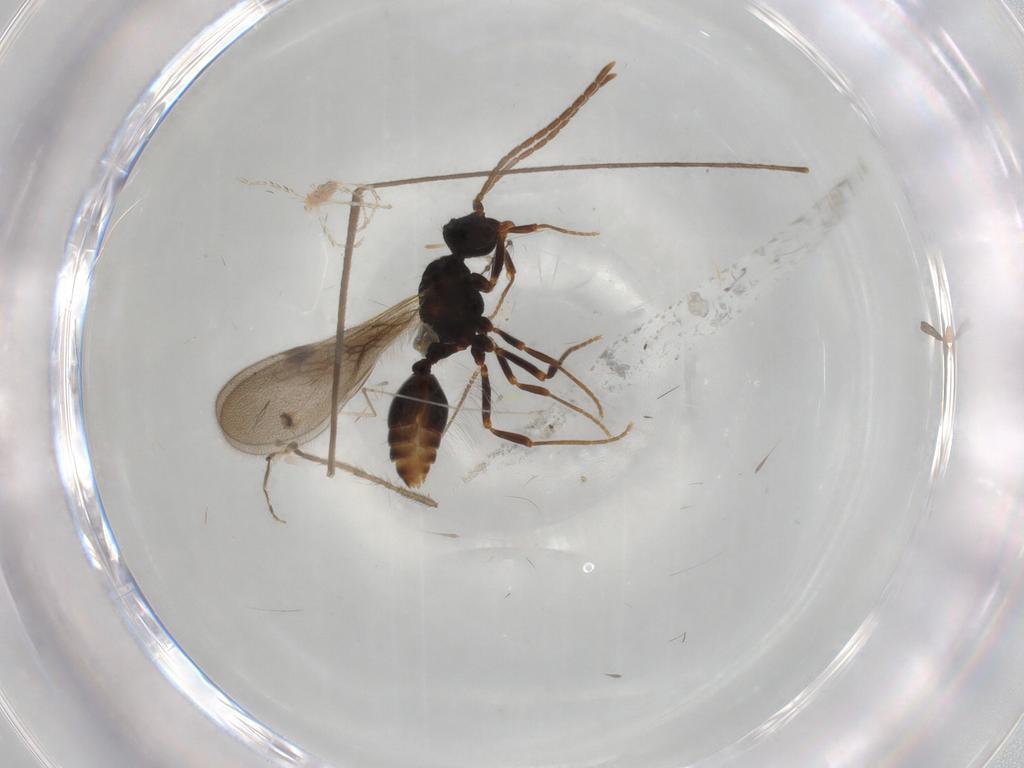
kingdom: Animalia
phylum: Arthropoda
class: Insecta
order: Hymenoptera
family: Formicidae
